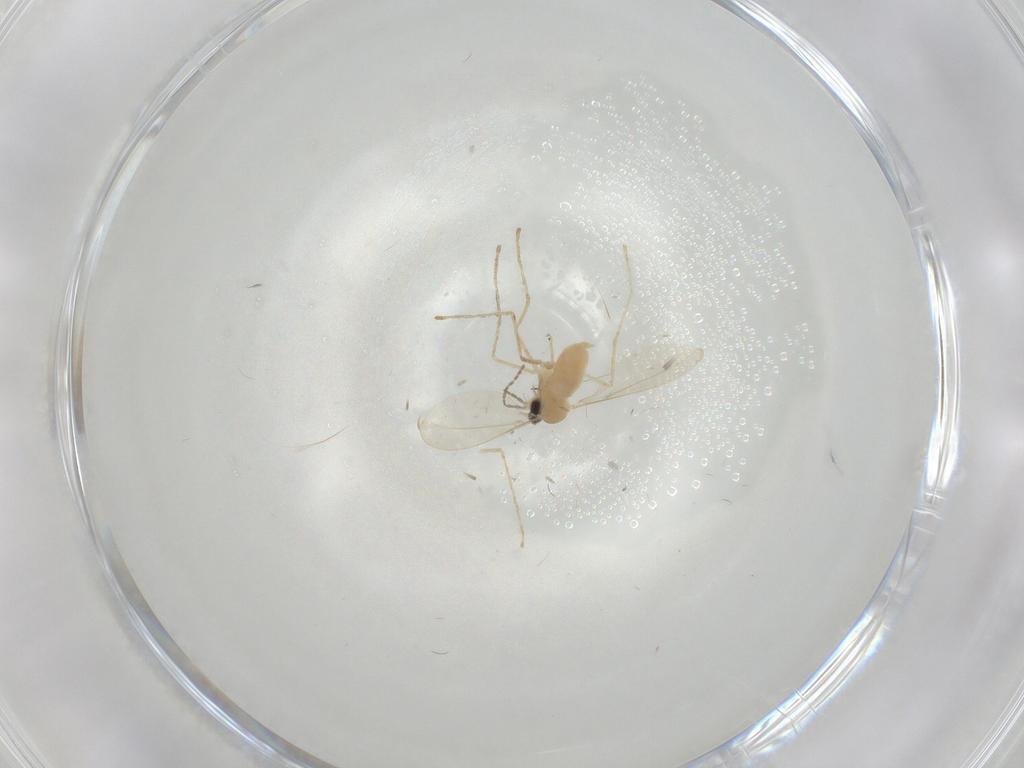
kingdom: Animalia
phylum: Arthropoda
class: Insecta
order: Diptera
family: Cecidomyiidae
